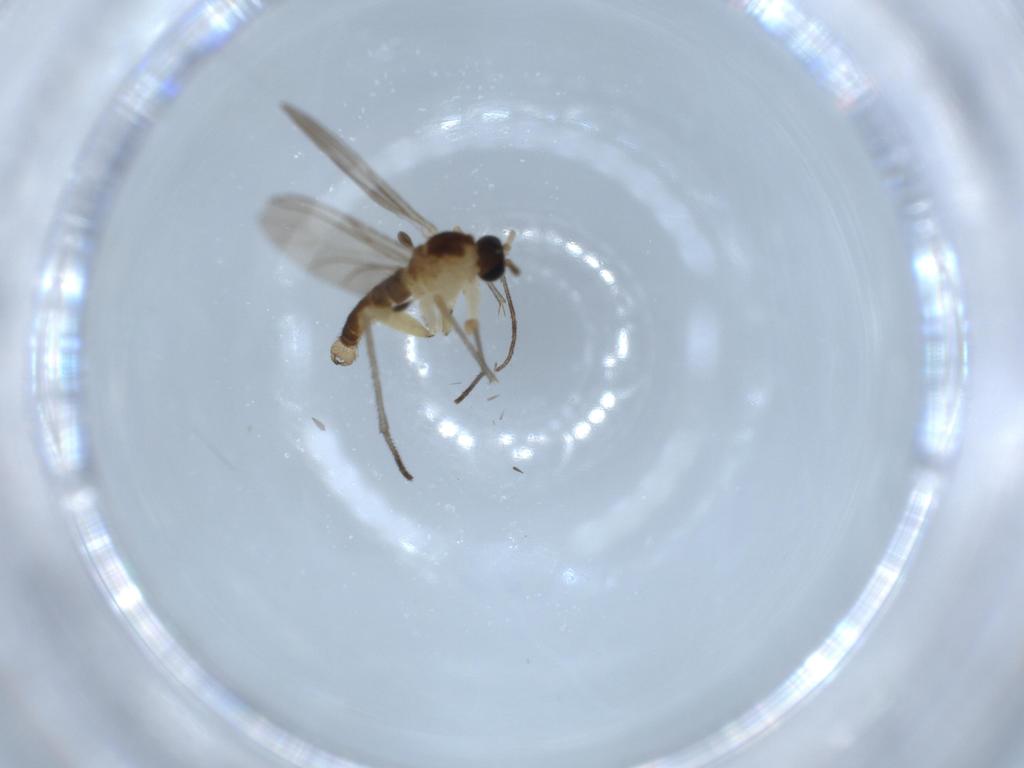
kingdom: Animalia
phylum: Arthropoda
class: Insecta
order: Diptera
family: Sciaridae
